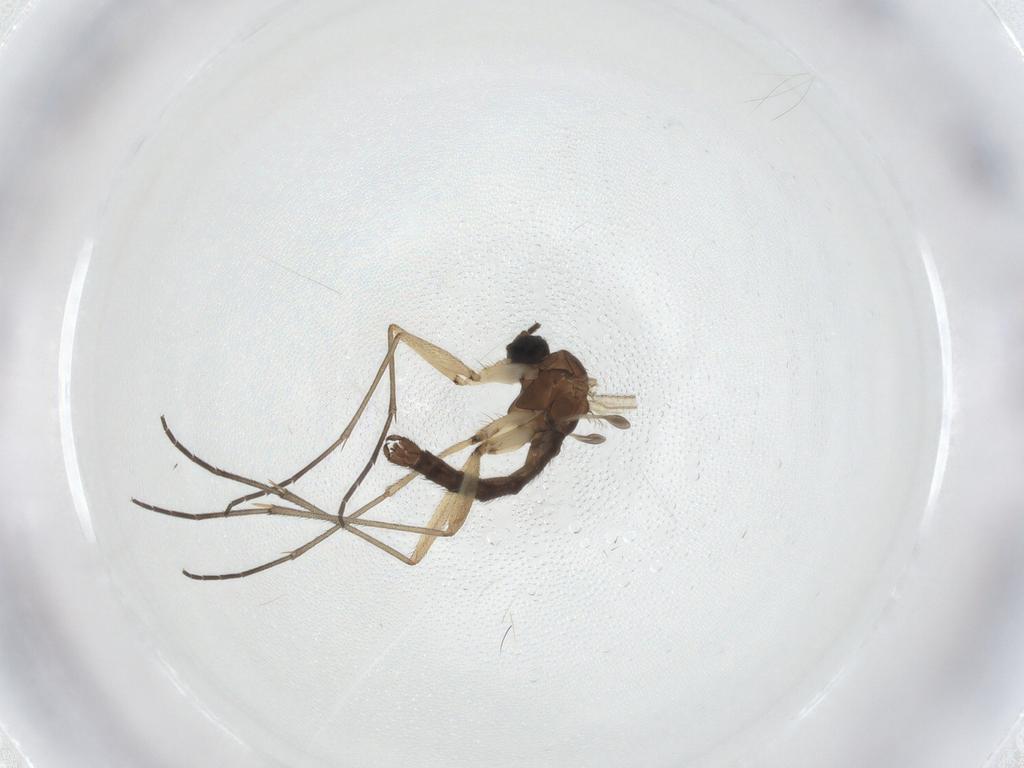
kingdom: Animalia
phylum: Arthropoda
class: Insecta
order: Diptera
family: Sciaridae
